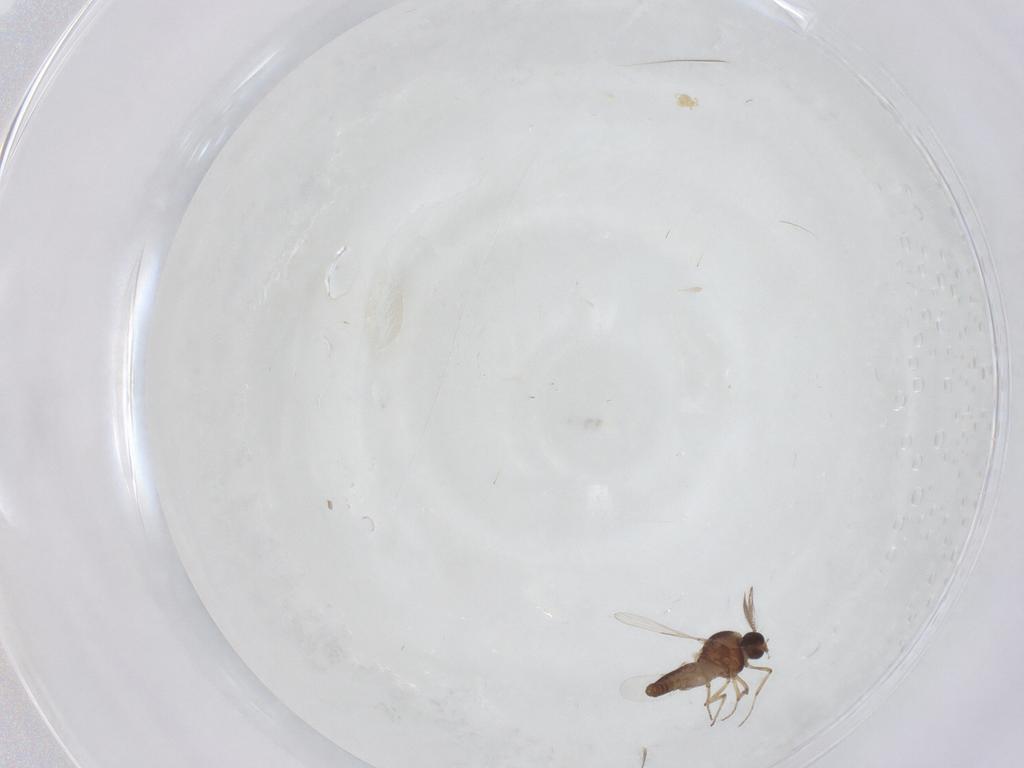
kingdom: Animalia
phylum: Arthropoda
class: Insecta
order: Diptera
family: Ceratopogonidae
